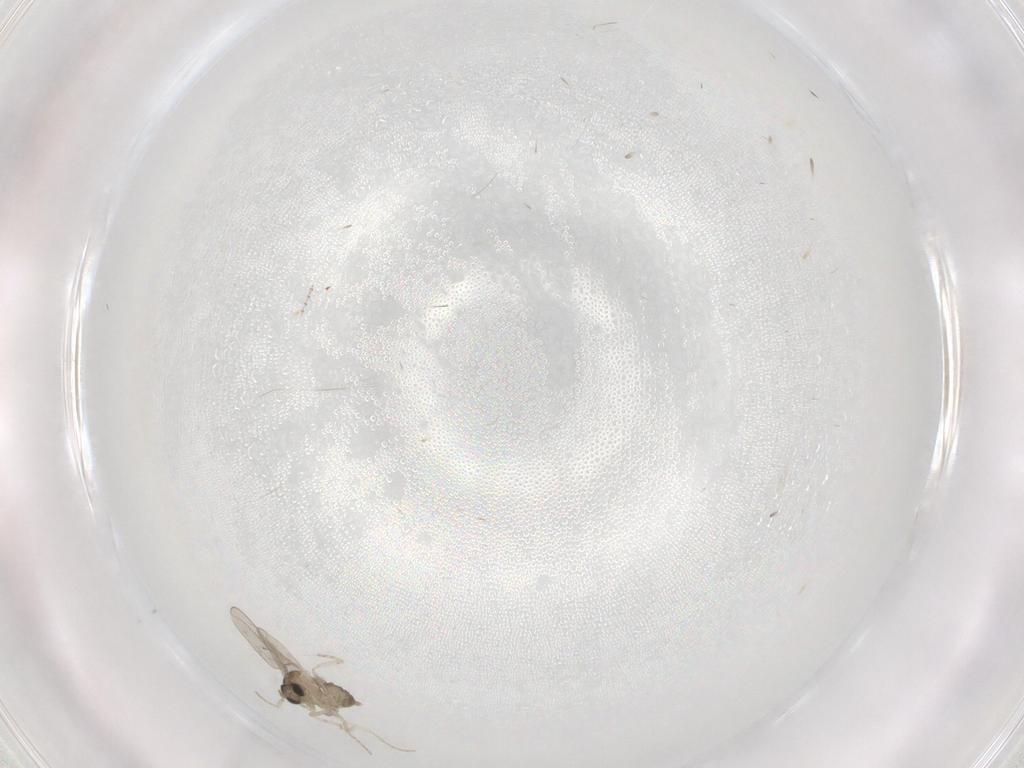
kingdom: Animalia
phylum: Arthropoda
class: Insecta
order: Diptera
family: Cecidomyiidae
